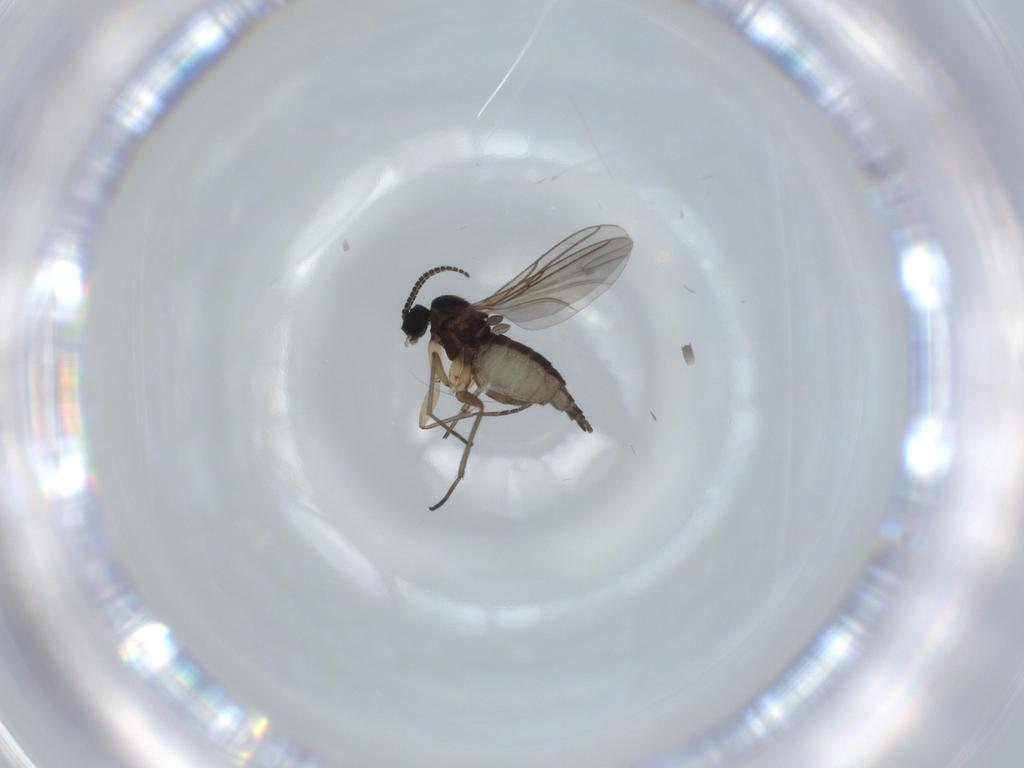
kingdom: Animalia
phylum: Arthropoda
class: Insecta
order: Diptera
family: Sciaridae
